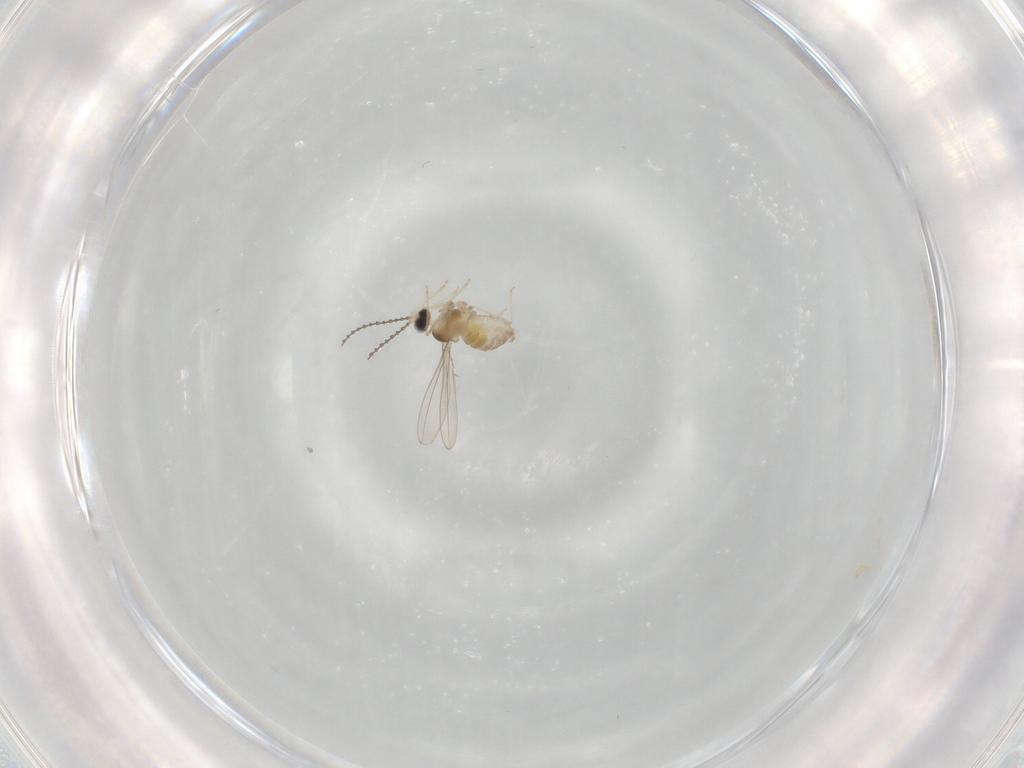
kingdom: Animalia
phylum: Arthropoda
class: Insecta
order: Diptera
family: Cecidomyiidae
